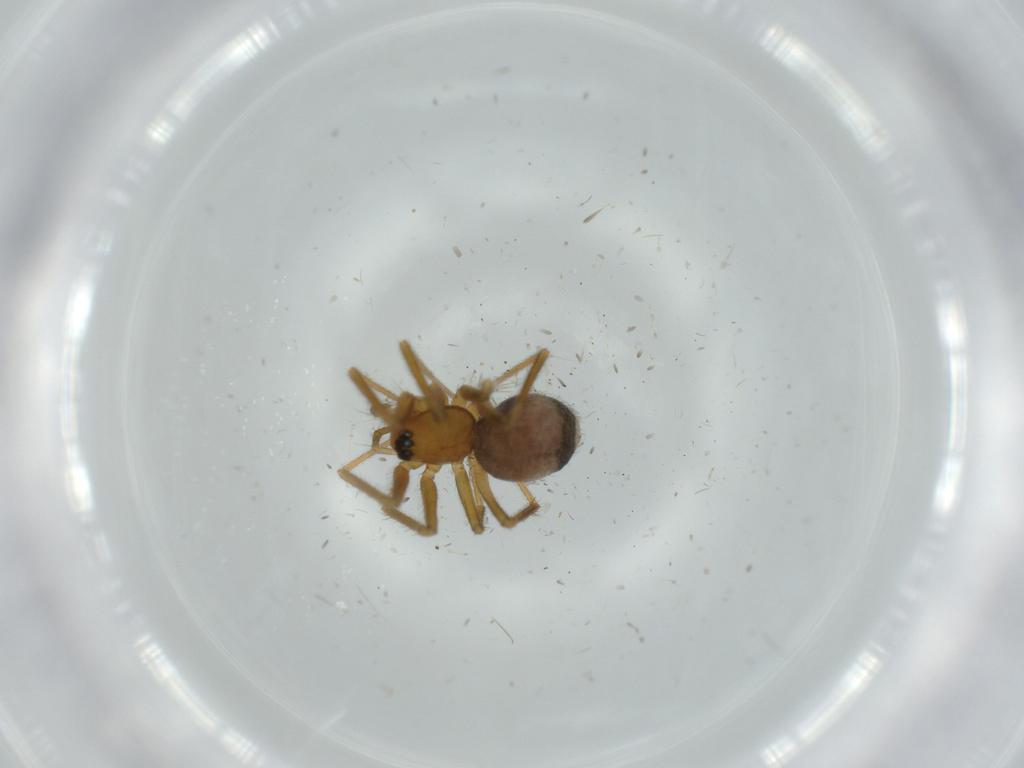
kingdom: Animalia
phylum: Arthropoda
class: Arachnida
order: Araneae
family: Linyphiidae
